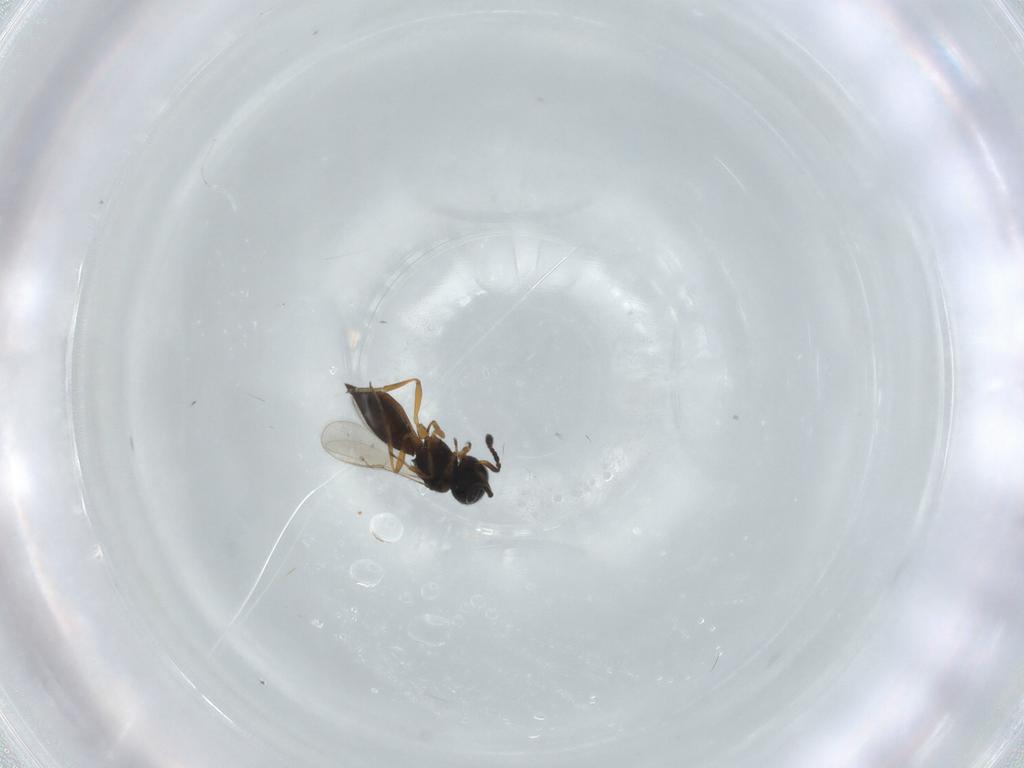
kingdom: Animalia
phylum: Arthropoda
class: Insecta
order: Hymenoptera
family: Scelionidae
